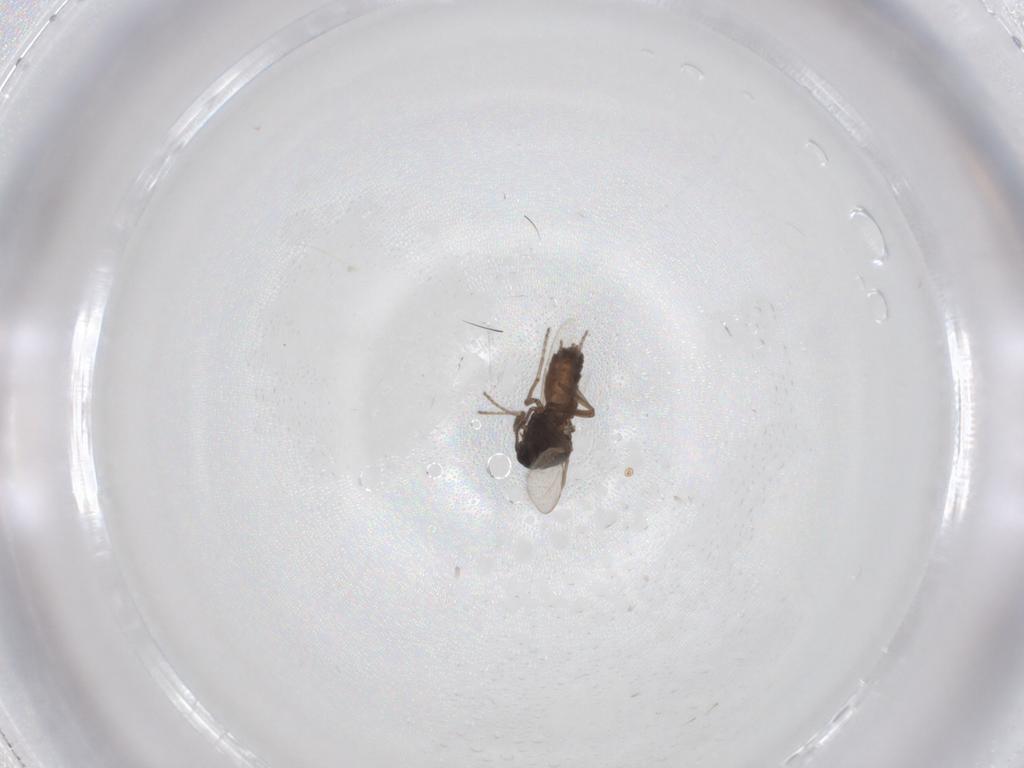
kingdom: Animalia
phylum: Arthropoda
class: Insecta
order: Diptera
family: Ceratopogonidae
